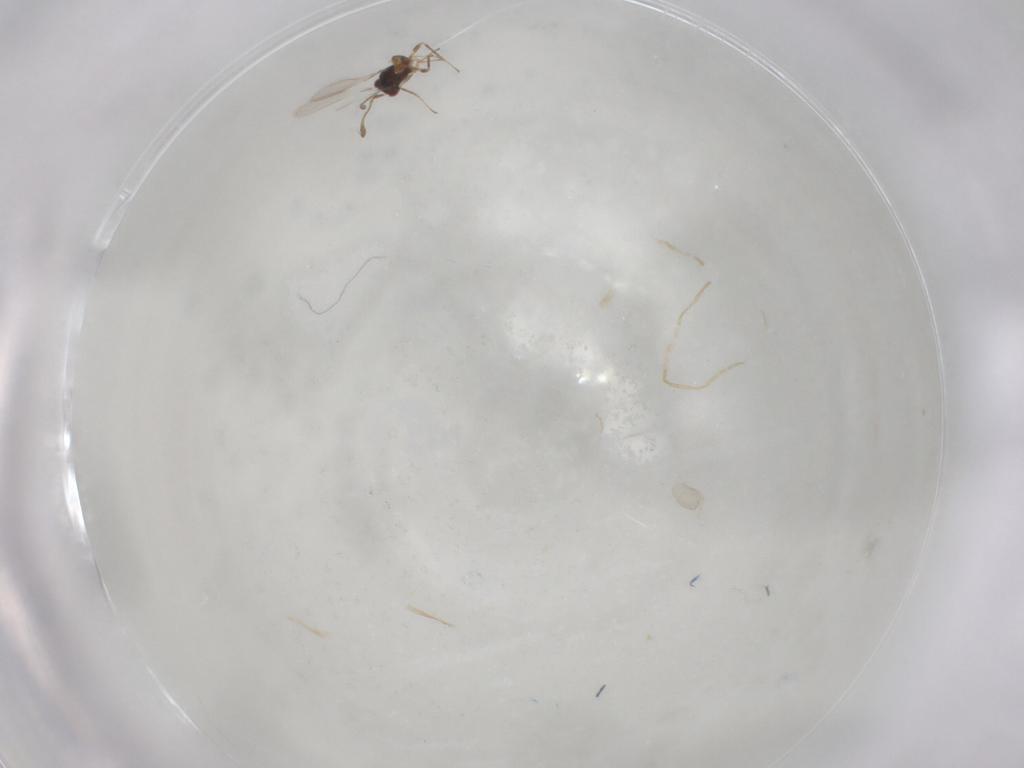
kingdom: Animalia
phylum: Arthropoda
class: Insecta
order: Hymenoptera
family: Mymaridae
